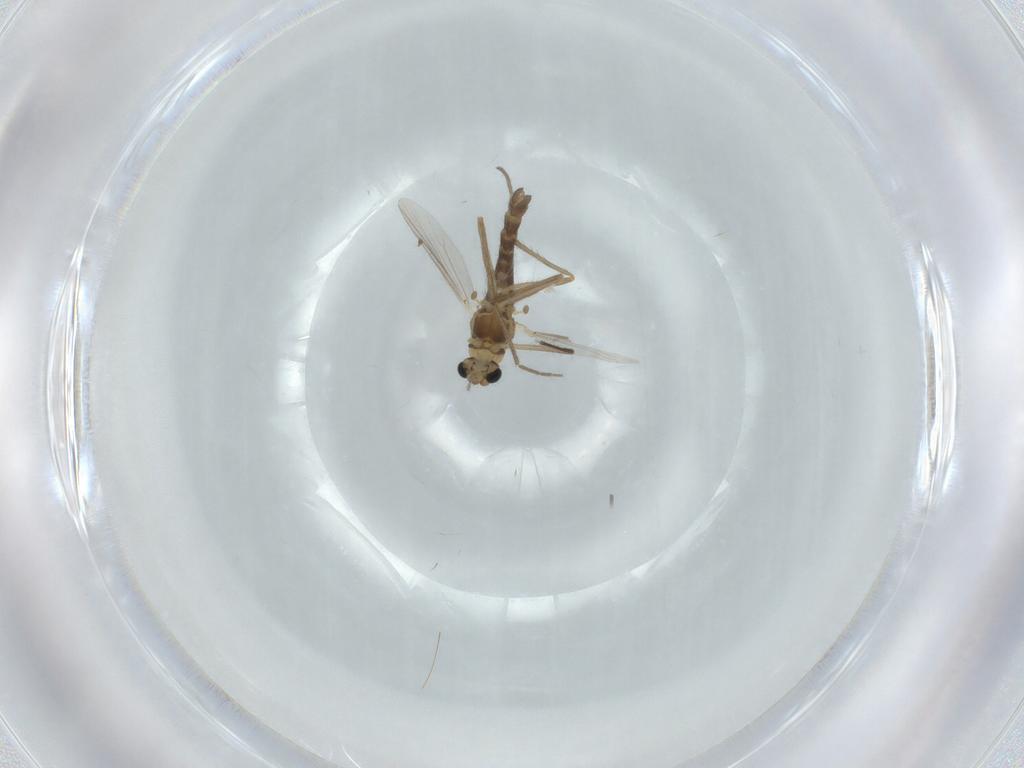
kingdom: Animalia
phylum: Arthropoda
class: Insecta
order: Diptera
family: Chironomidae
